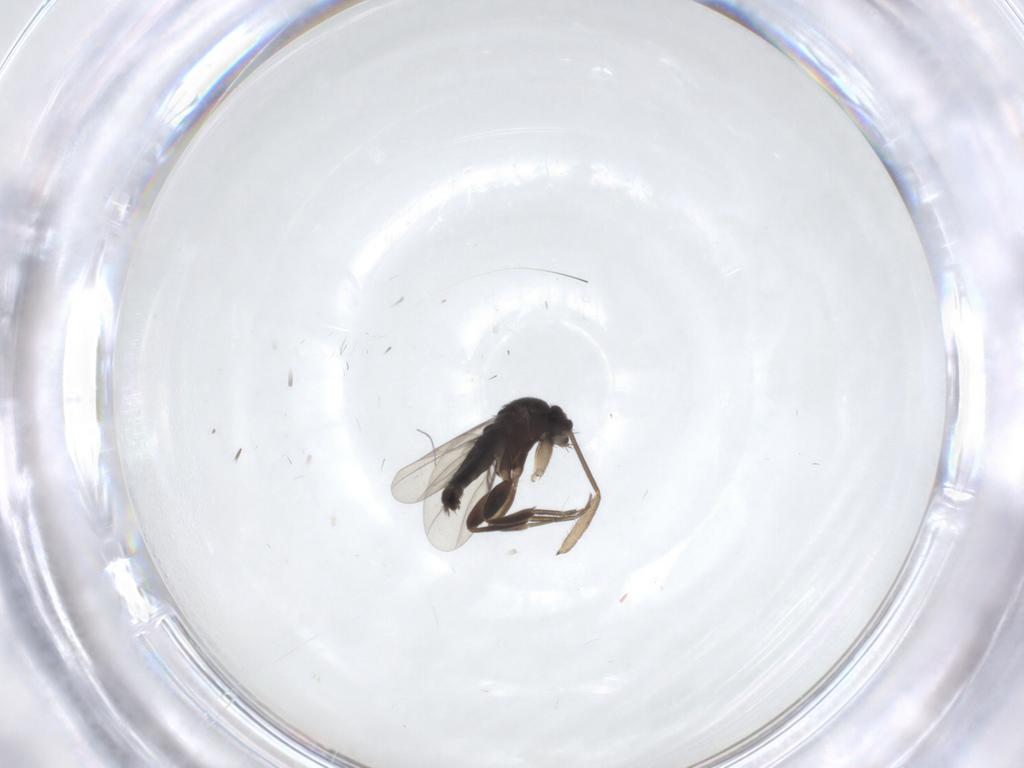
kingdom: Animalia
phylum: Arthropoda
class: Insecta
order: Diptera
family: Phoridae
